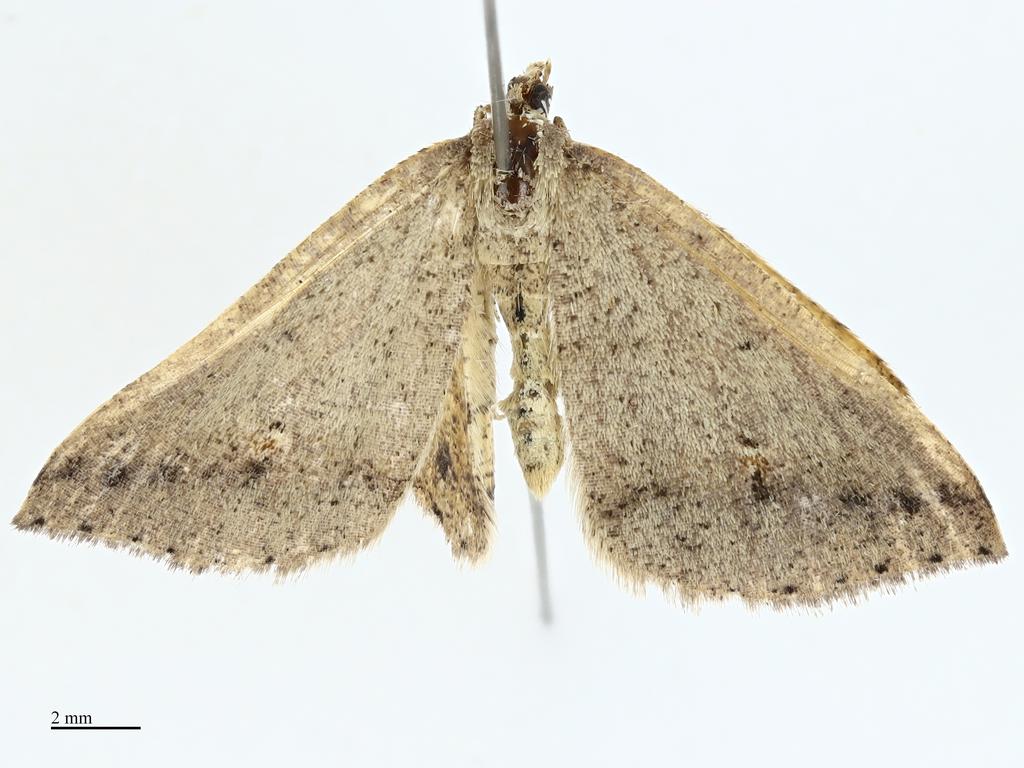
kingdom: Animalia
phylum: Arthropoda
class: Insecta
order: Lepidoptera
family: Geometridae
